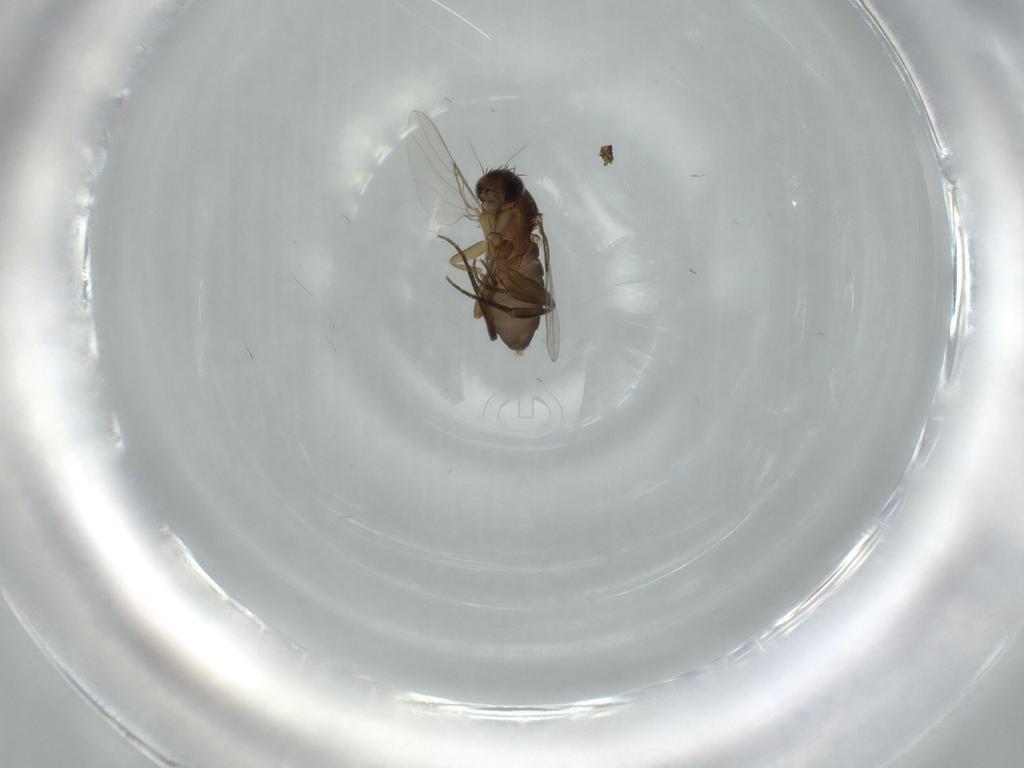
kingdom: Animalia
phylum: Arthropoda
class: Insecta
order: Diptera
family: Phoridae
